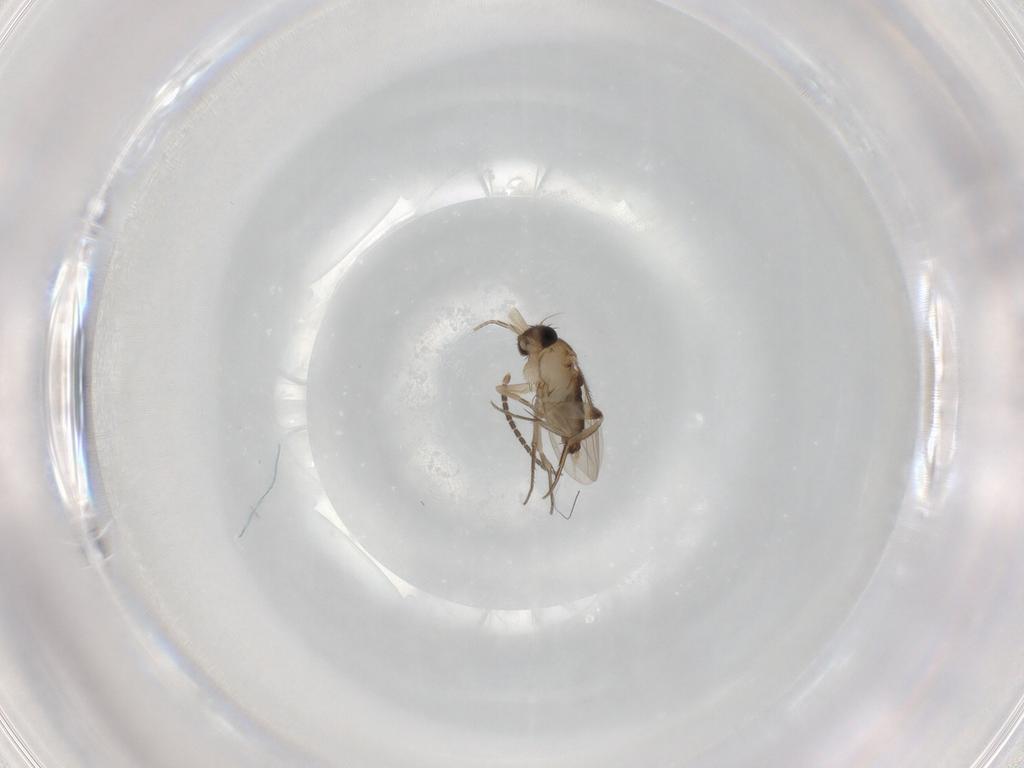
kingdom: Animalia
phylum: Arthropoda
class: Insecta
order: Diptera
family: Phoridae
